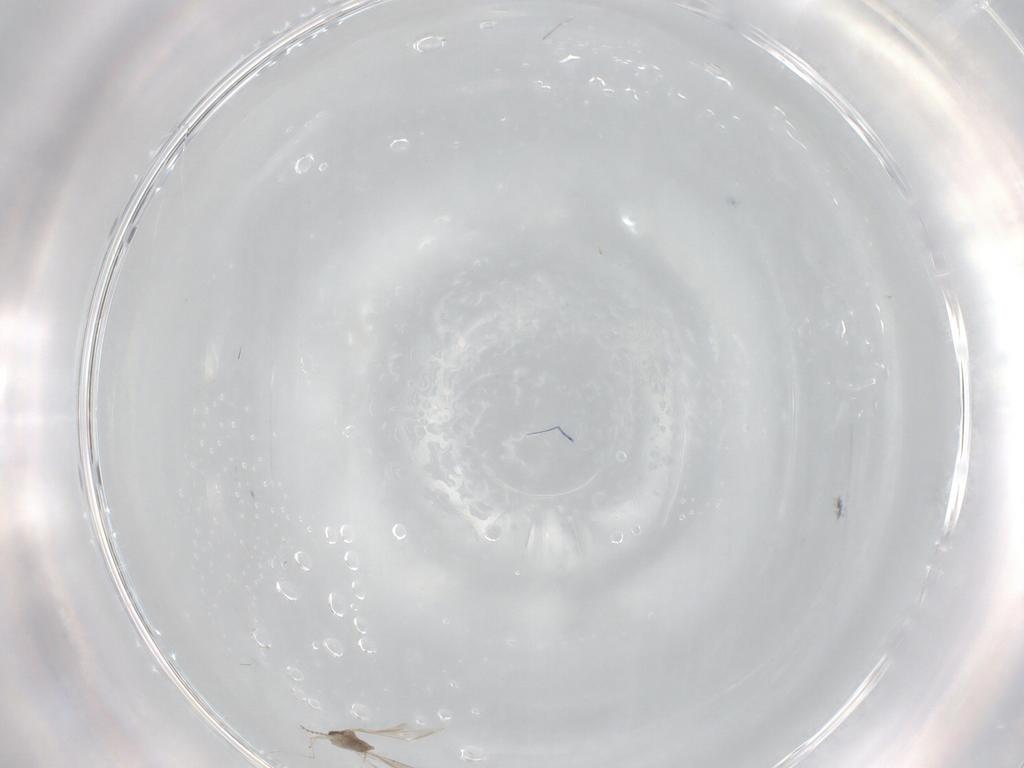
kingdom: Animalia
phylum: Arthropoda
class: Insecta
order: Diptera
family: Cecidomyiidae
